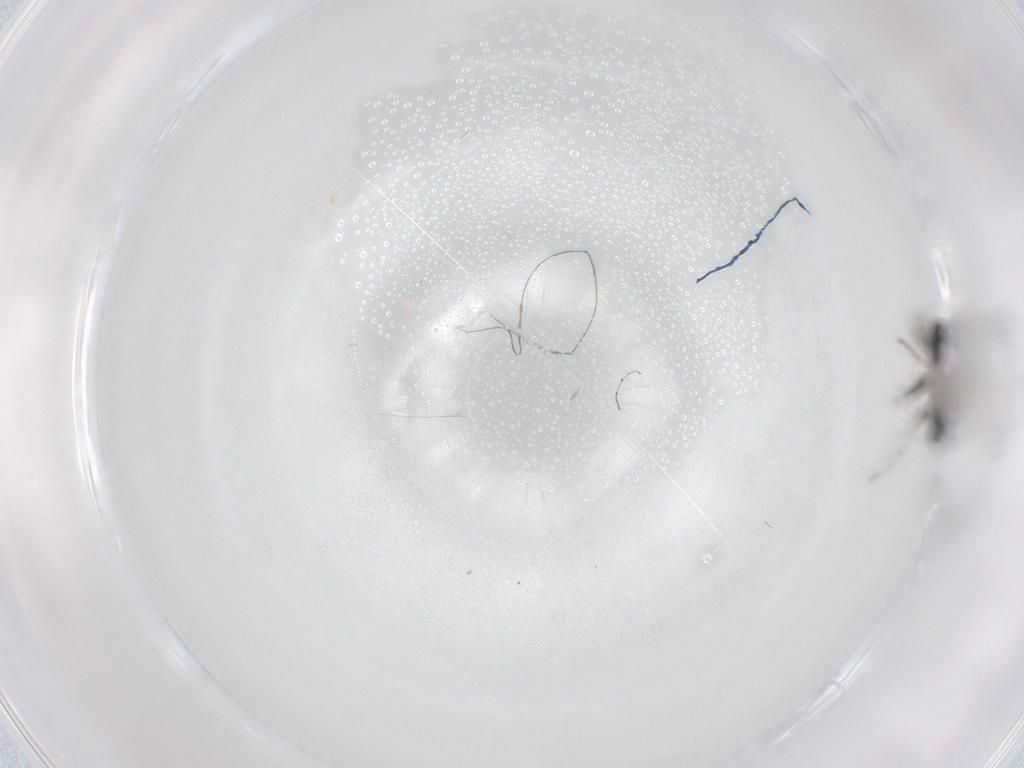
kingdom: Animalia
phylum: Arthropoda
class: Insecta
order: Hymenoptera
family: Figitidae
